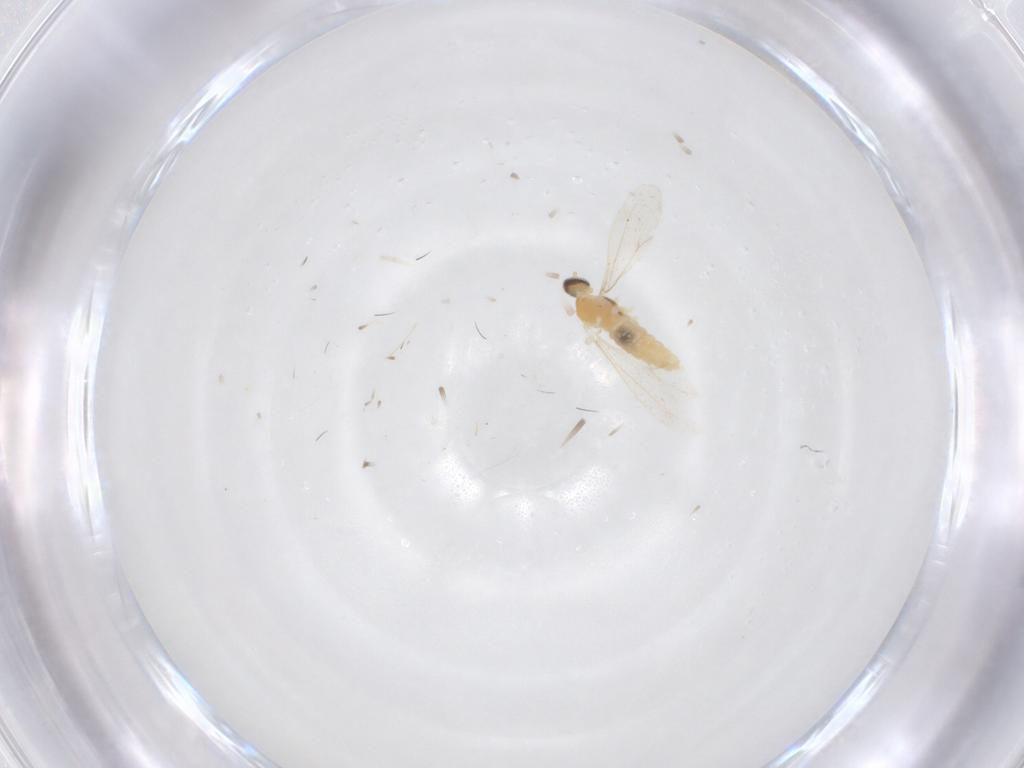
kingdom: Animalia
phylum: Arthropoda
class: Insecta
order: Diptera
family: Cecidomyiidae
